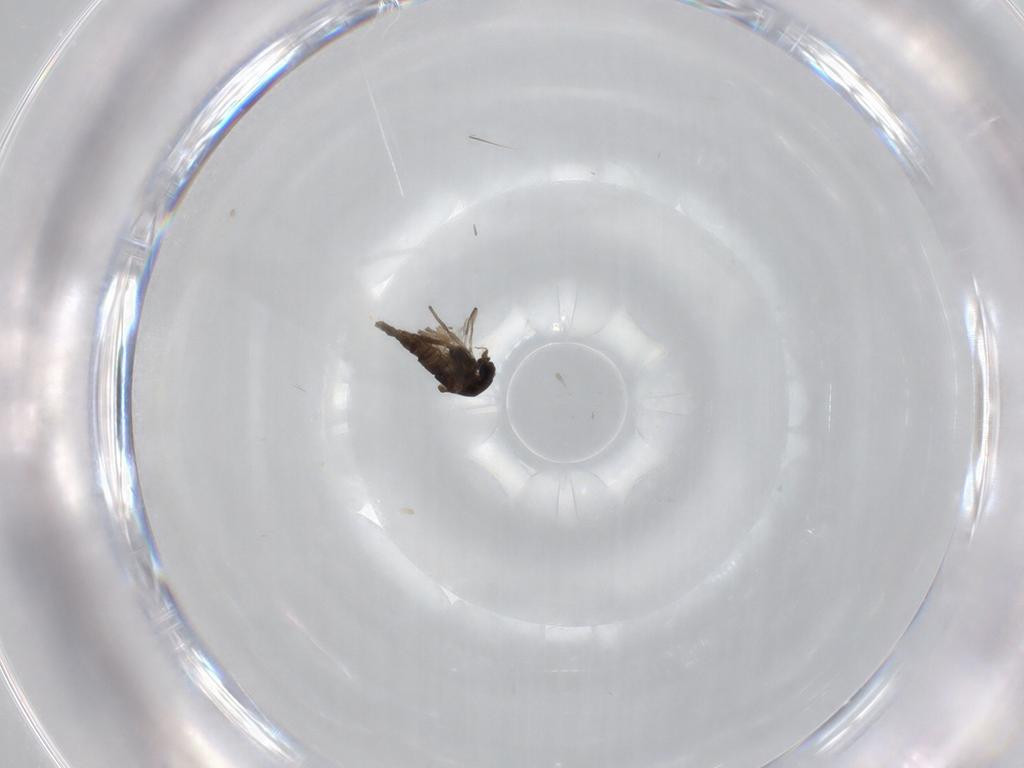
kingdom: Animalia
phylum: Arthropoda
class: Insecta
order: Diptera
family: Chironomidae
